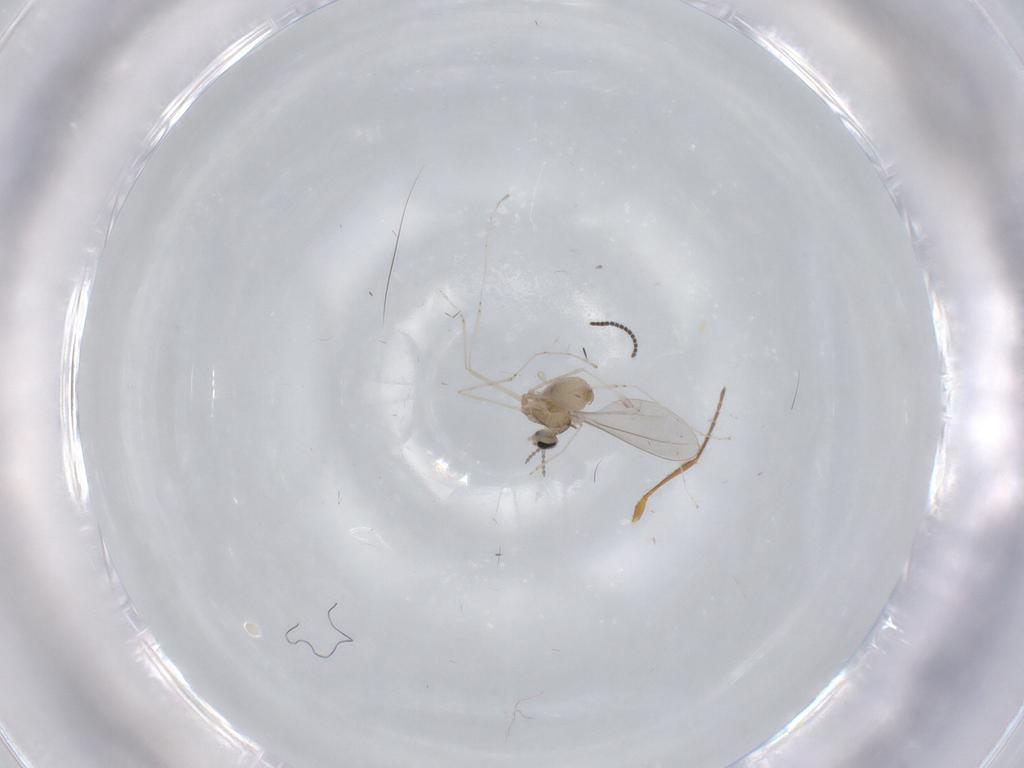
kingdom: Animalia
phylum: Arthropoda
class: Insecta
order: Diptera
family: Cecidomyiidae
